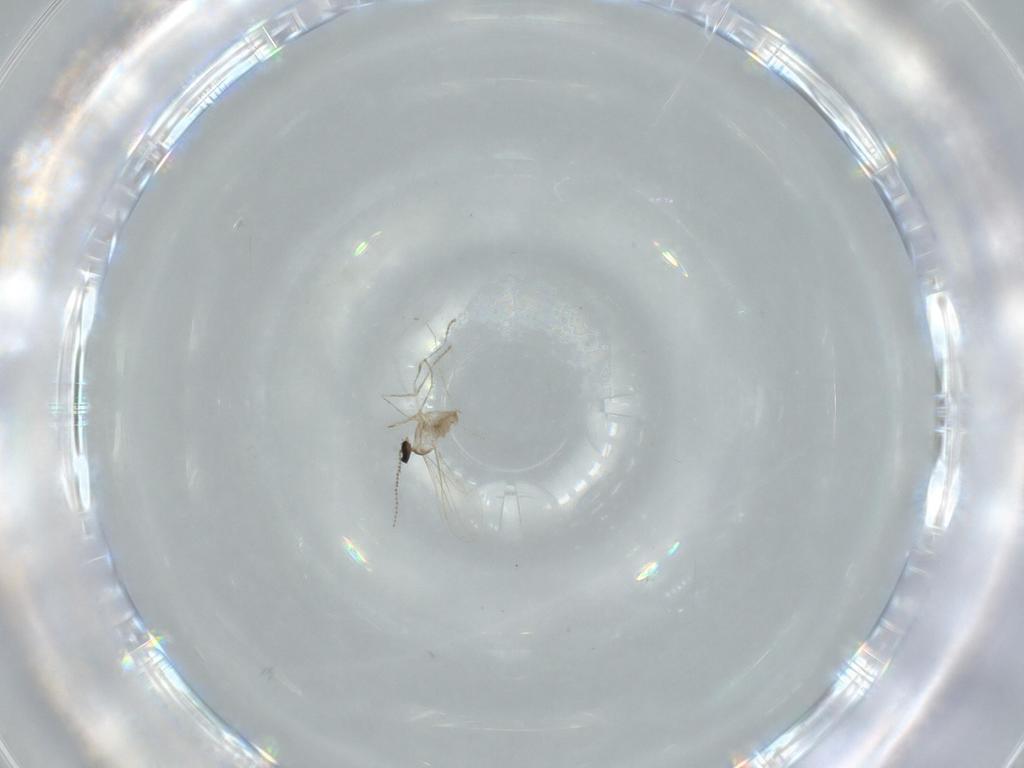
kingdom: Animalia
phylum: Arthropoda
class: Insecta
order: Diptera
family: Cecidomyiidae
